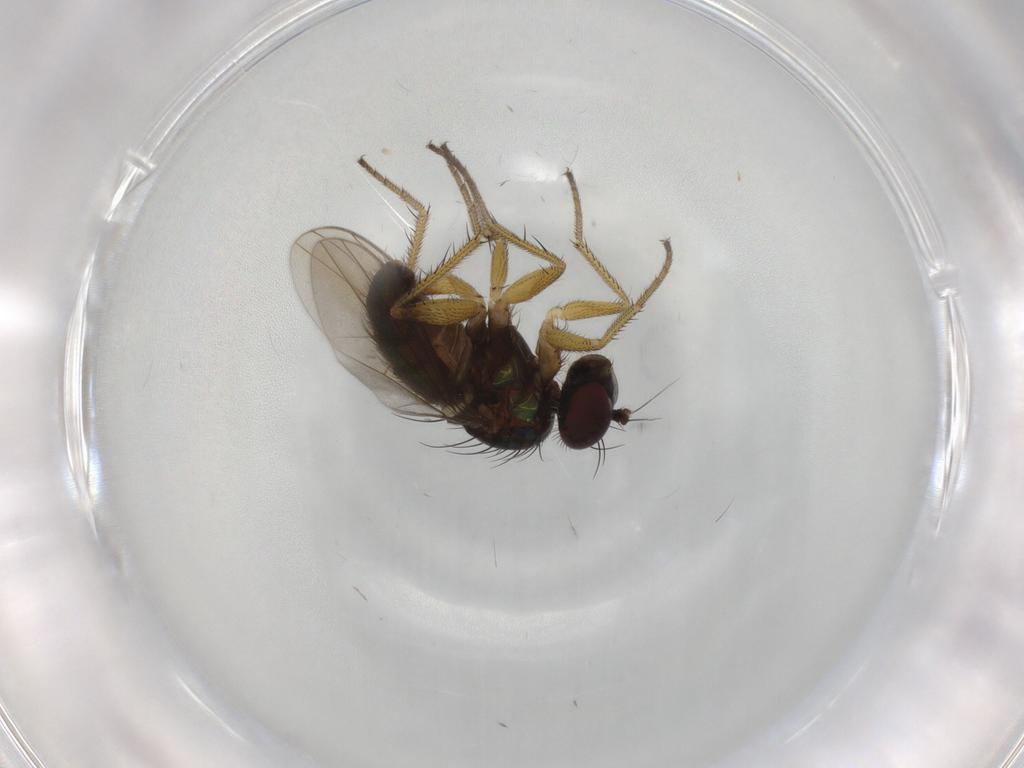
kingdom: Animalia
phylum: Arthropoda
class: Insecta
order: Diptera
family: Dolichopodidae
